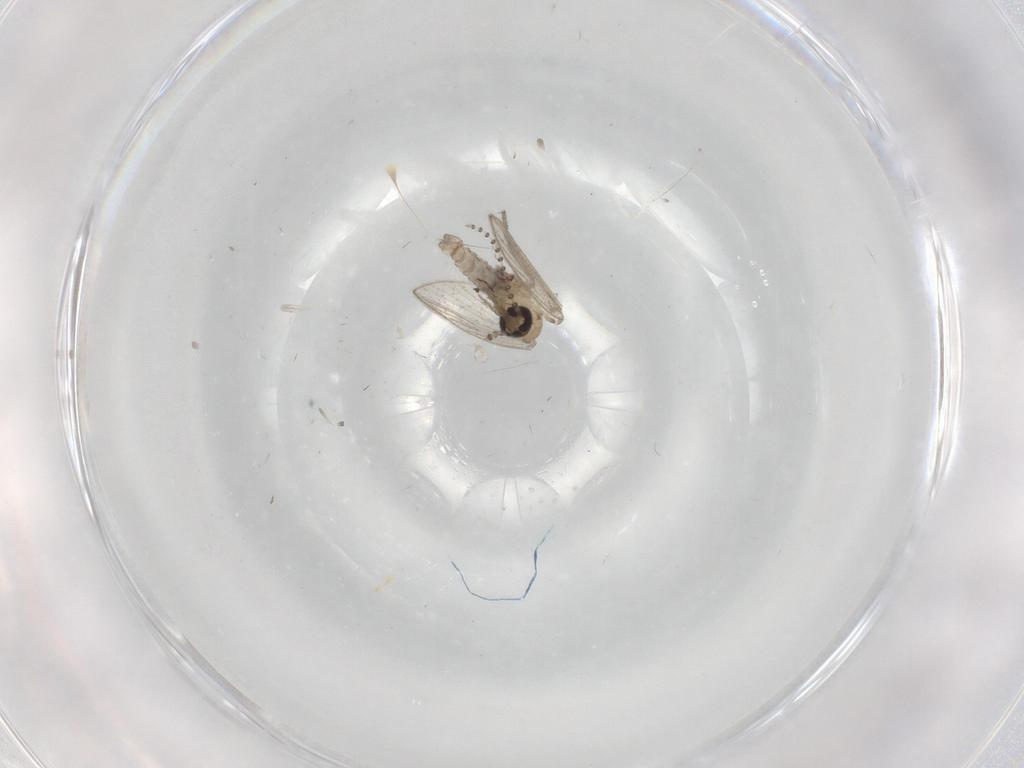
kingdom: Animalia
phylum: Arthropoda
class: Insecta
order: Diptera
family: Psychodidae
